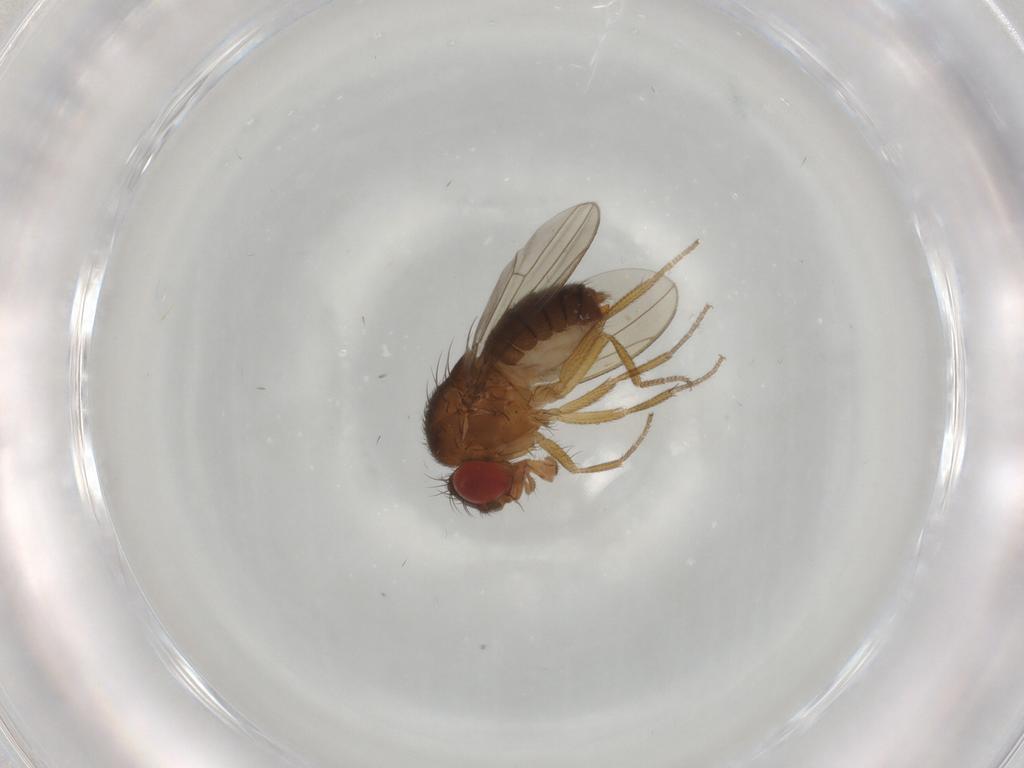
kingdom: Animalia
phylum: Arthropoda
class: Insecta
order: Diptera
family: Drosophilidae
